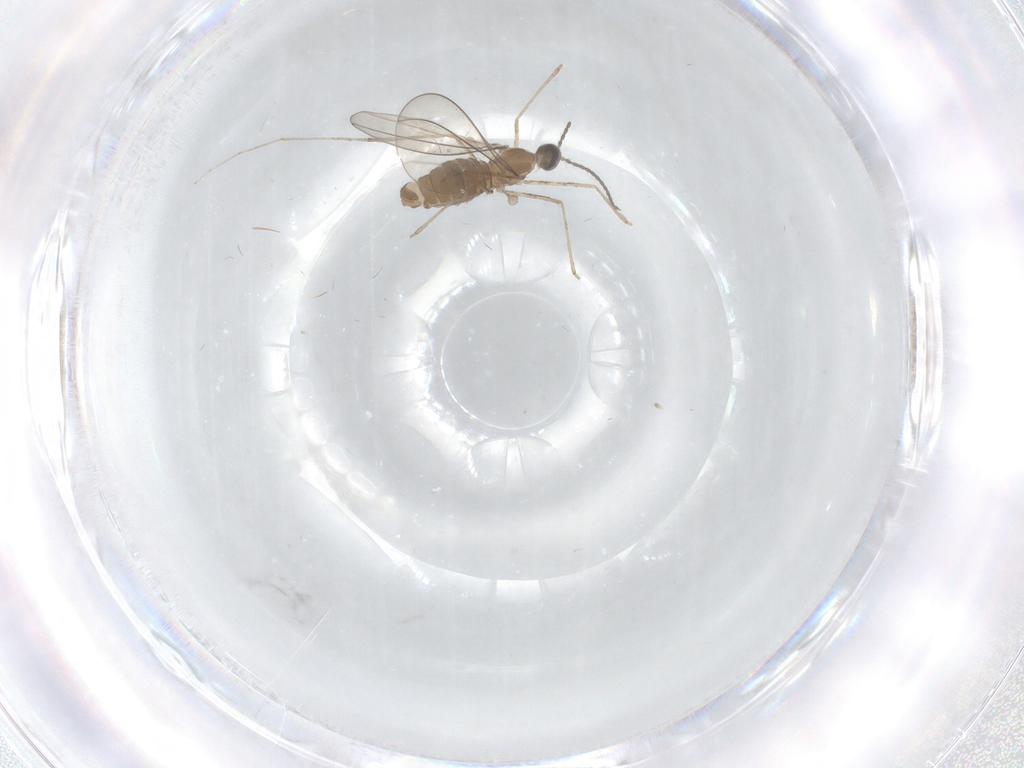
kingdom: Animalia
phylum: Arthropoda
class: Insecta
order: Diptera
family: Cecidomyiidae
